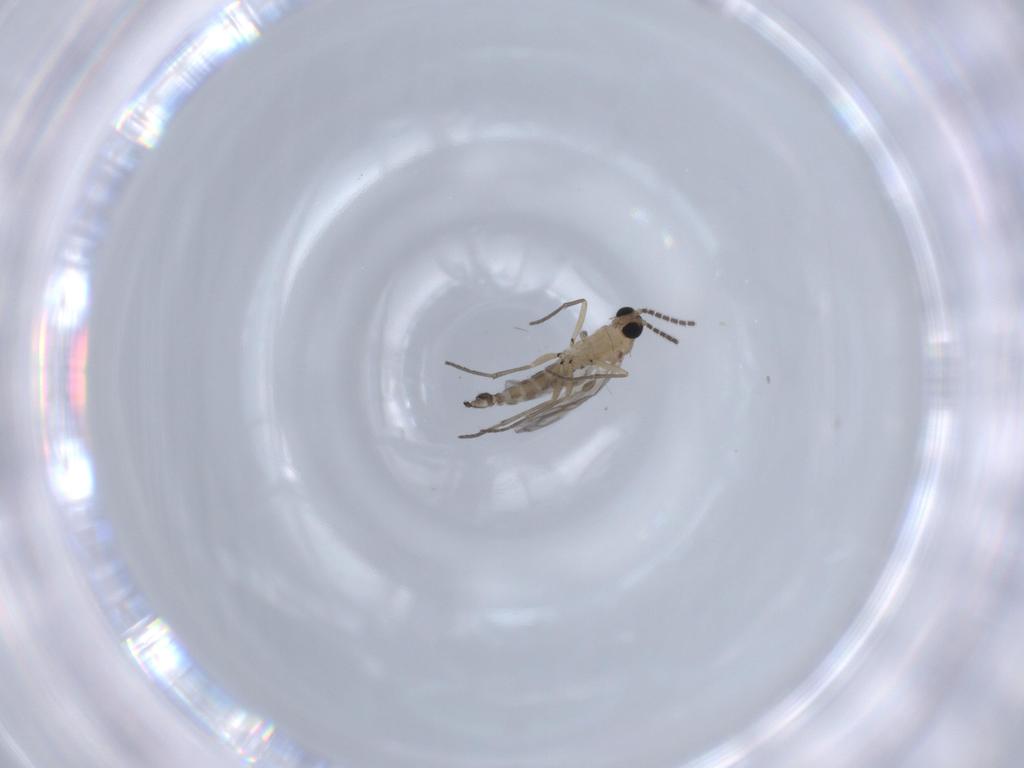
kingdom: Animalia
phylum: Arthropoda
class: Insecta
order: Diptera
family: Sciaridae
